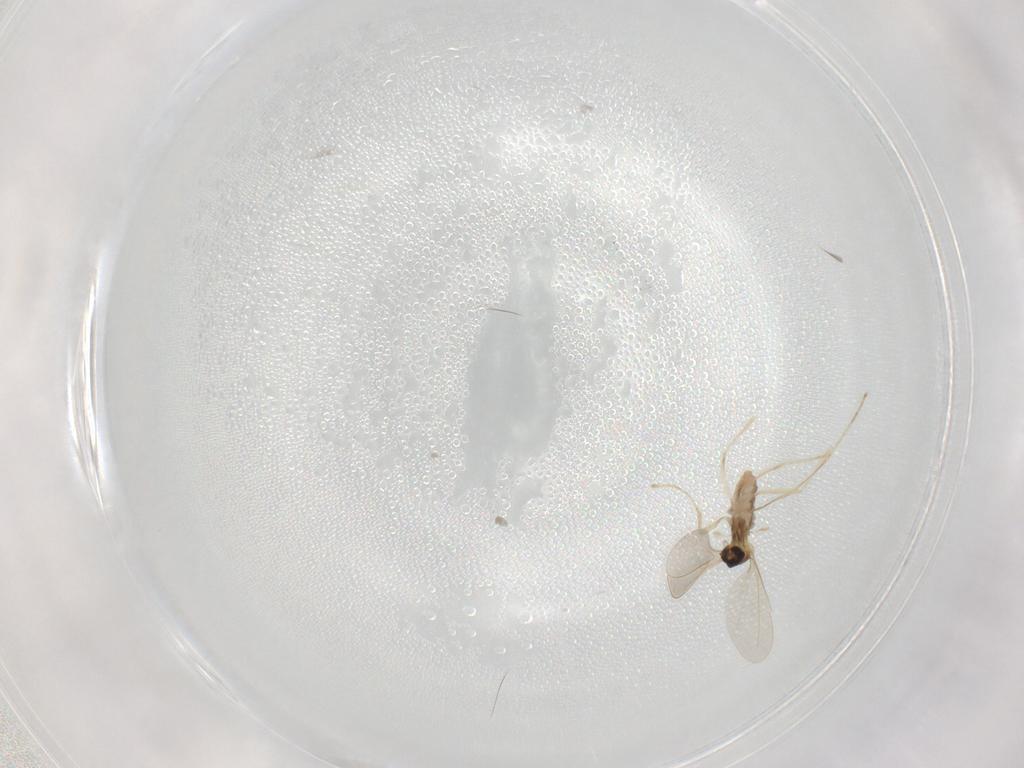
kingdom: Animalia
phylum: Arthropoda
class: Insecta
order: Diptera
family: Cecidomyiidae
